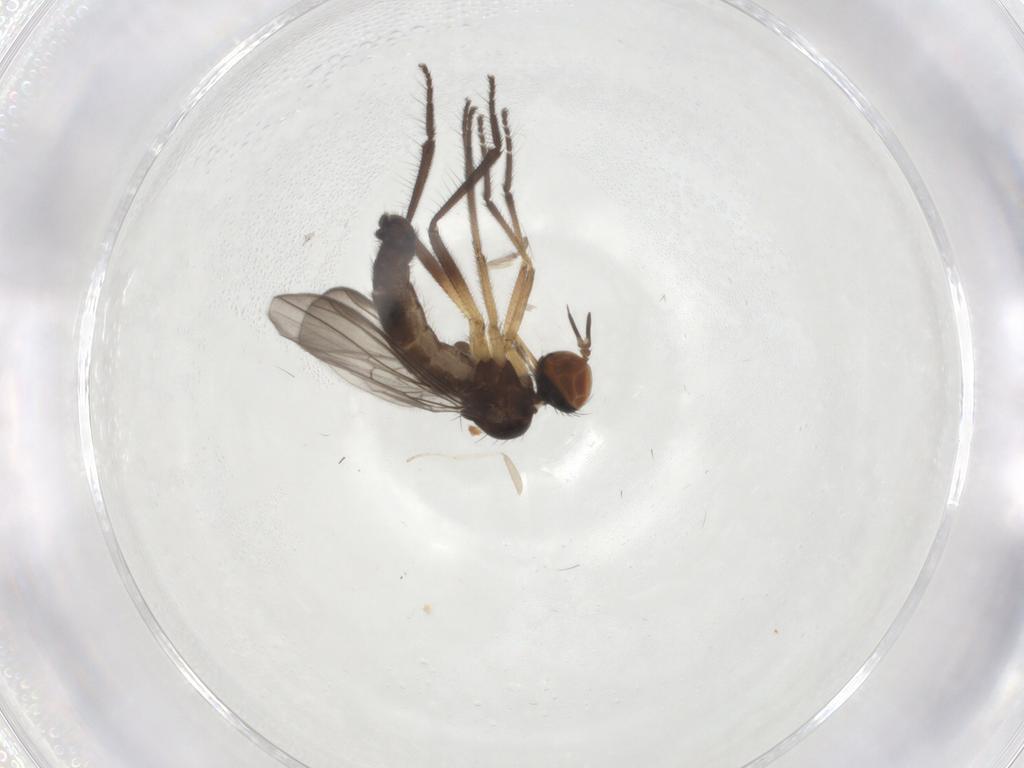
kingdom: Animalia
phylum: Arthropoda
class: Insecta
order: Diptera
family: Empididae
